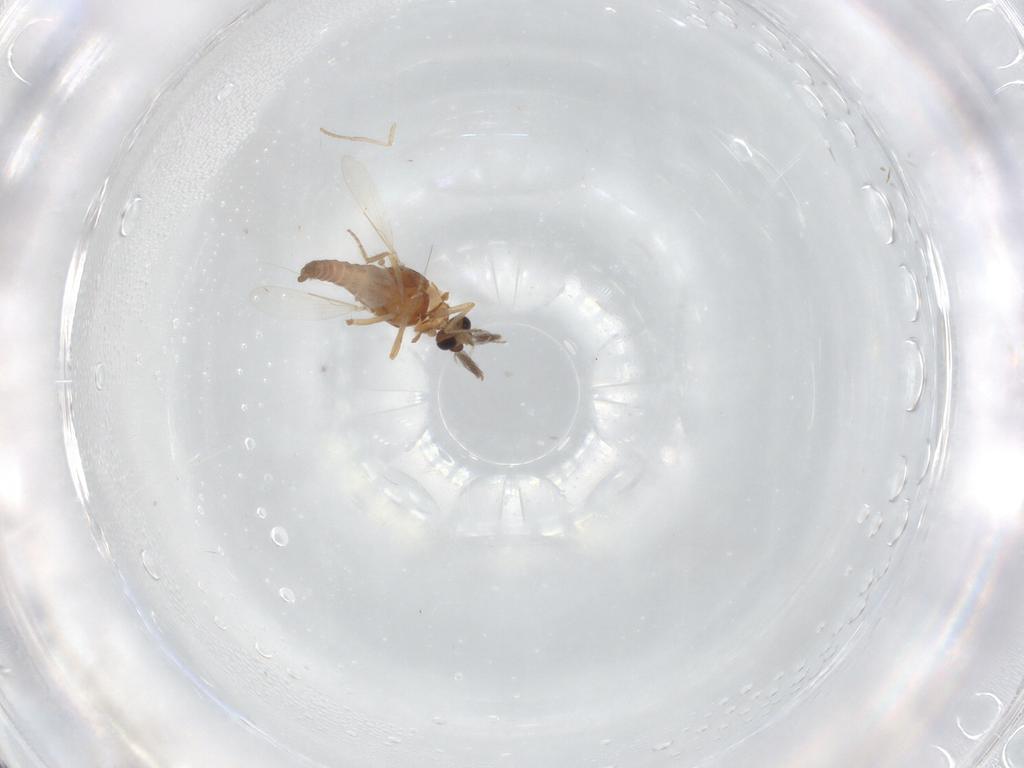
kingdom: Animalia
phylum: Arthropoda
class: Insecta
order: Diptera
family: Ceratopogonidae
